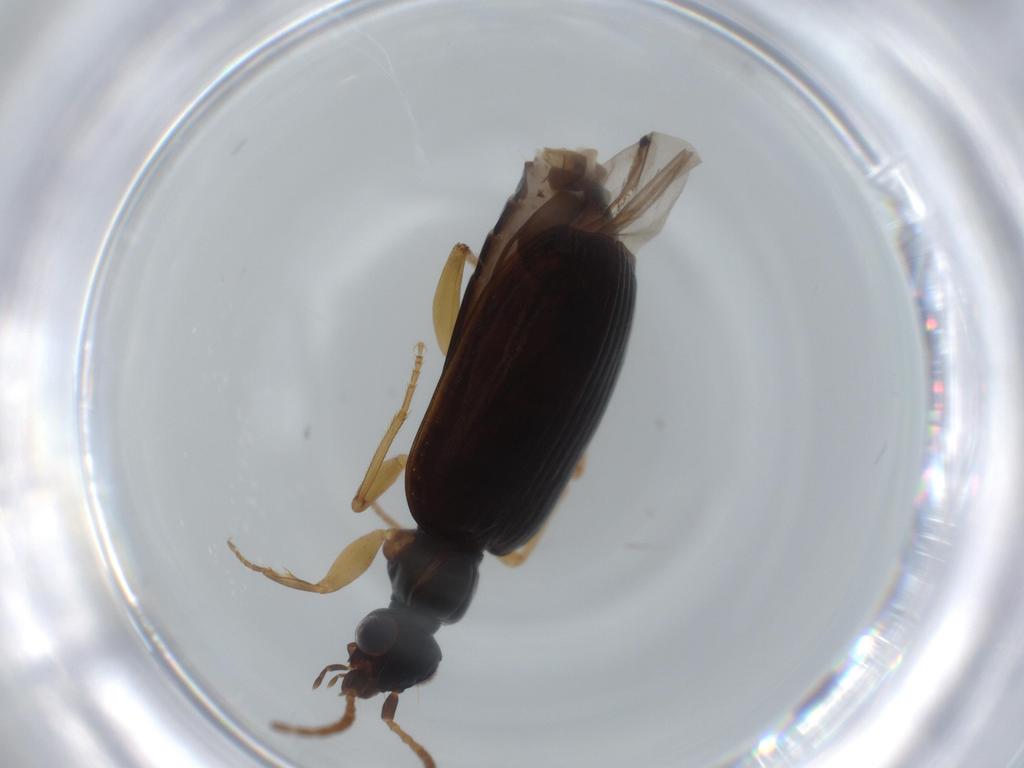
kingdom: Animalia
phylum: Arthropoda
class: Insecta
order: Coleoptera
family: Carabidae
